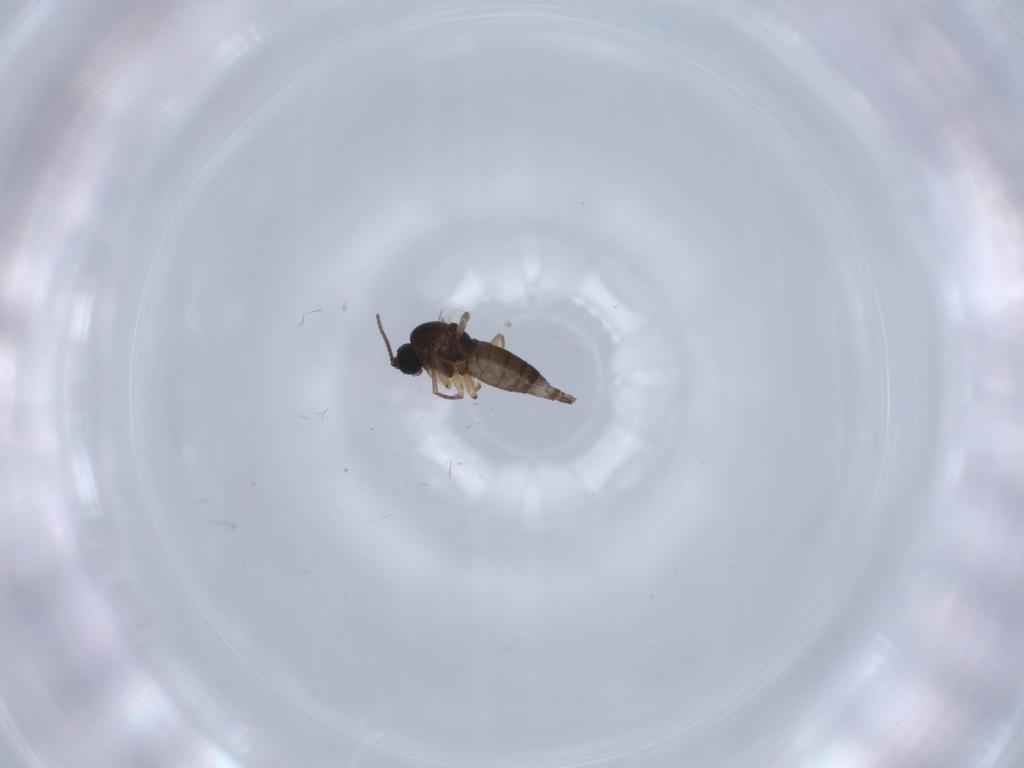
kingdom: Animalia
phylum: Arthropoda
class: Insecta
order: Diptera
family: Sciaridae
